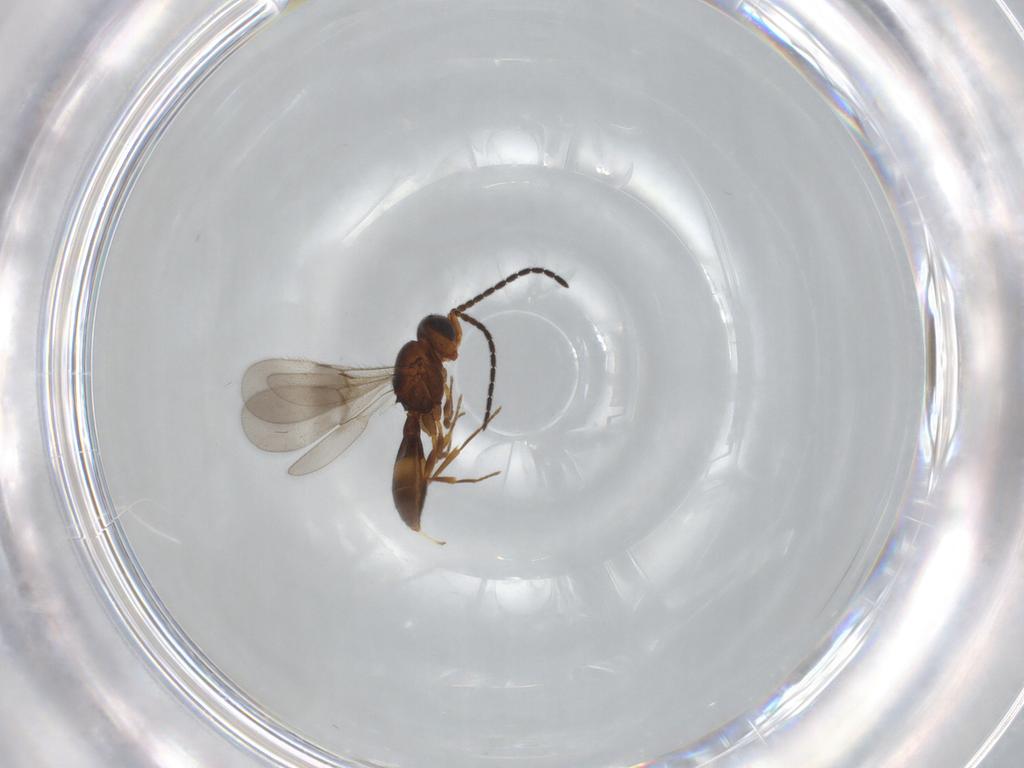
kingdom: Animalia
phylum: Arthropoda
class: Insecta
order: Hymenoptera
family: Scelionidae
